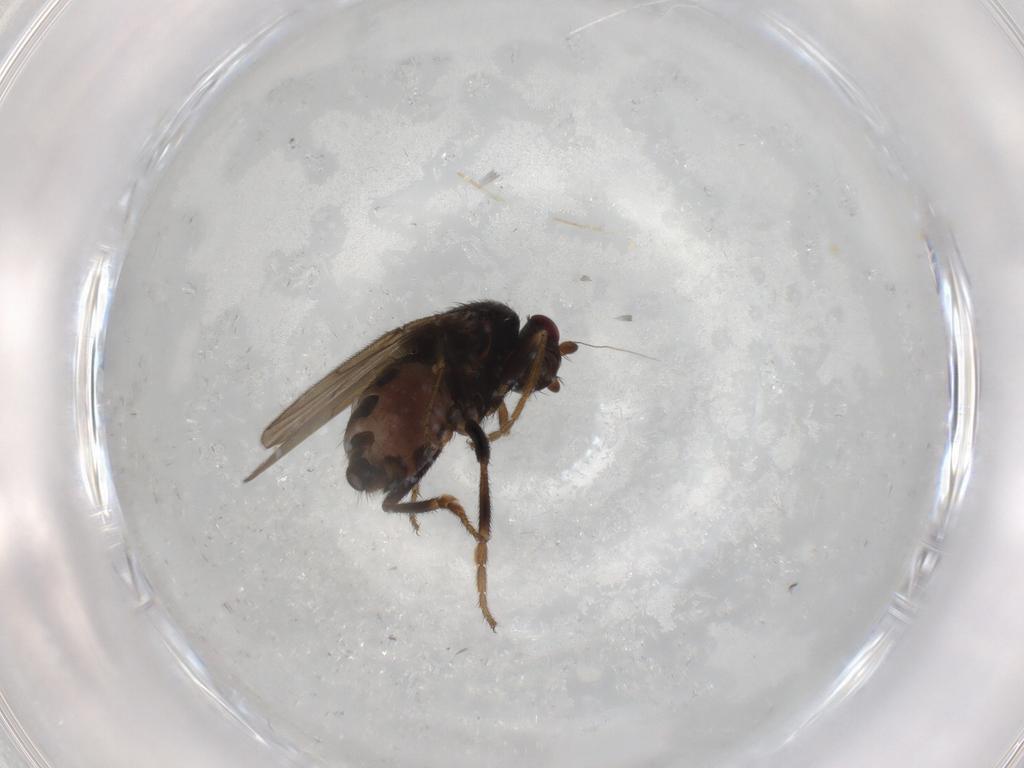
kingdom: Animalia
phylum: Arthropoda
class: Insecta
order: Diptera
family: Sphaeroceridae
